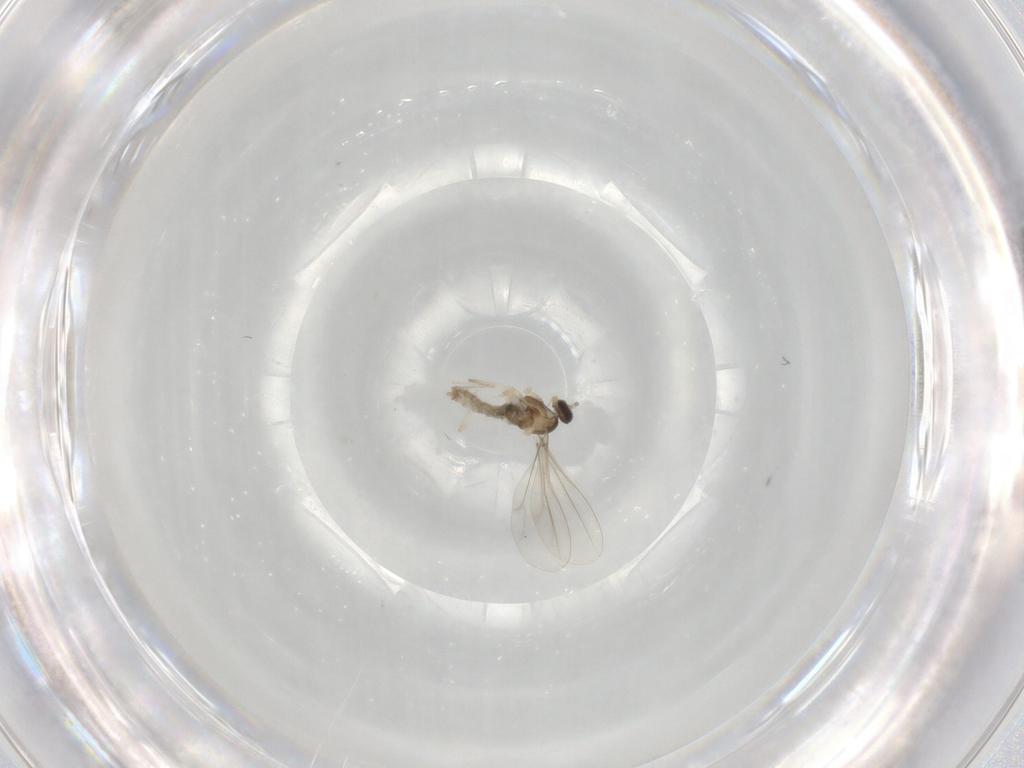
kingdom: Animalia
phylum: Arthropoda
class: Insecta
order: Diptera
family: Cecidomyiidae
